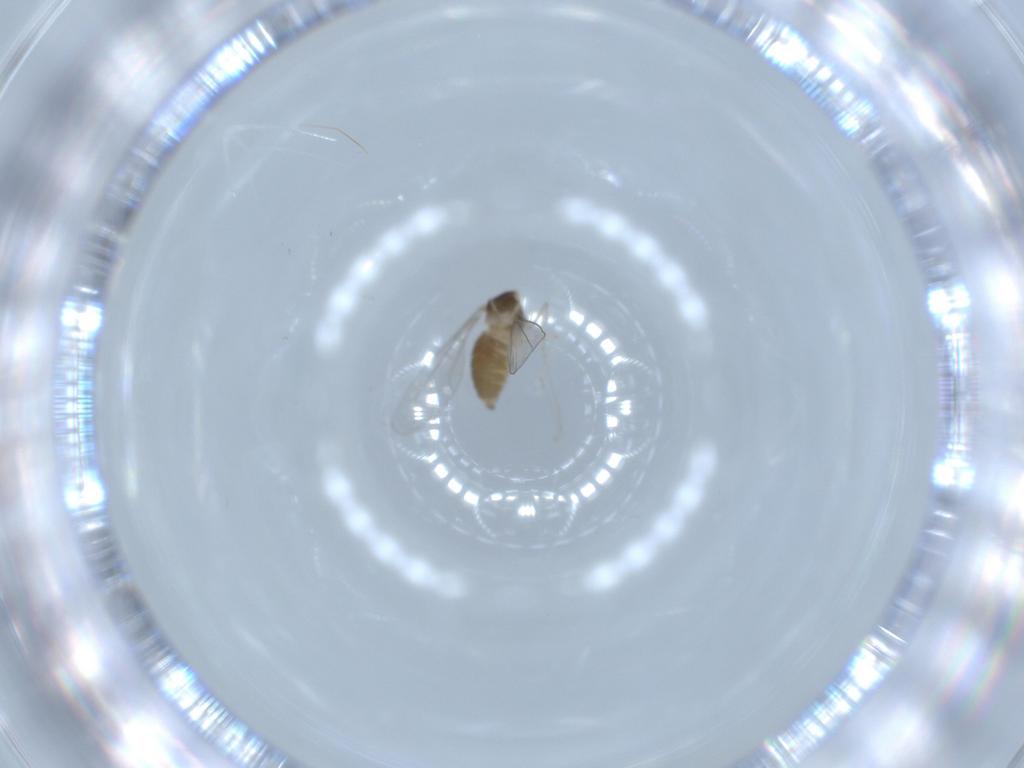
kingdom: Animalia
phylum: Arthropoda
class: Insecta
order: Diptera
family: Cecidomyiidae
